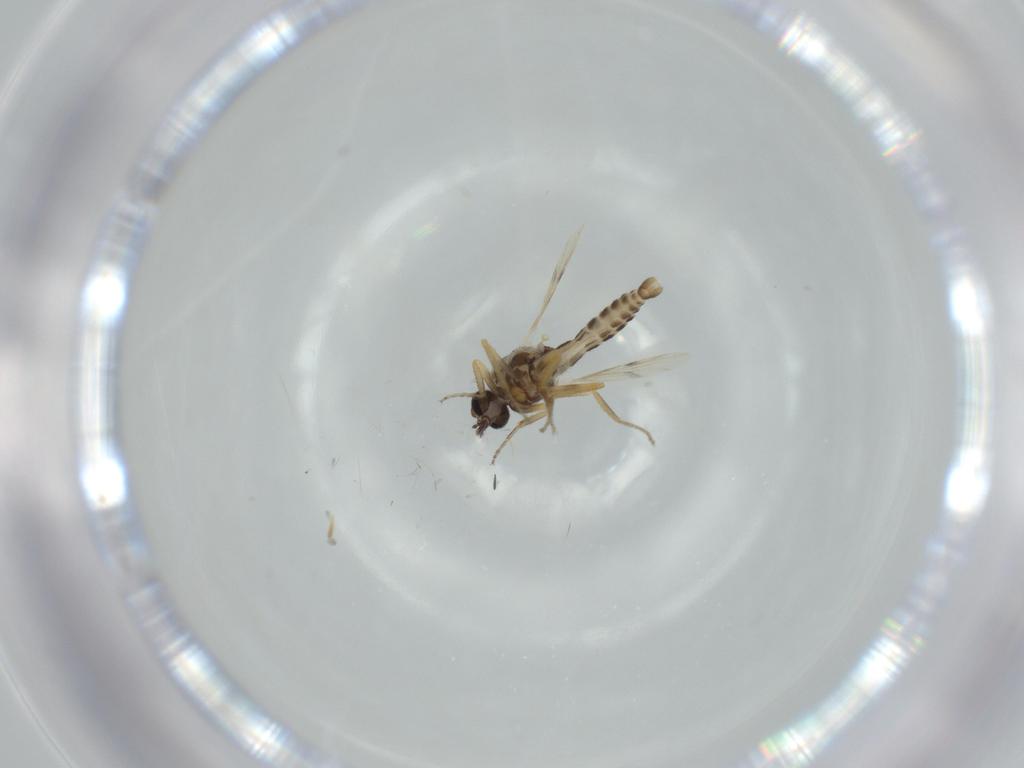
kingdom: Animalia
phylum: Arthropoda
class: Insecta
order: Diptera
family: Ceratopogonidae
